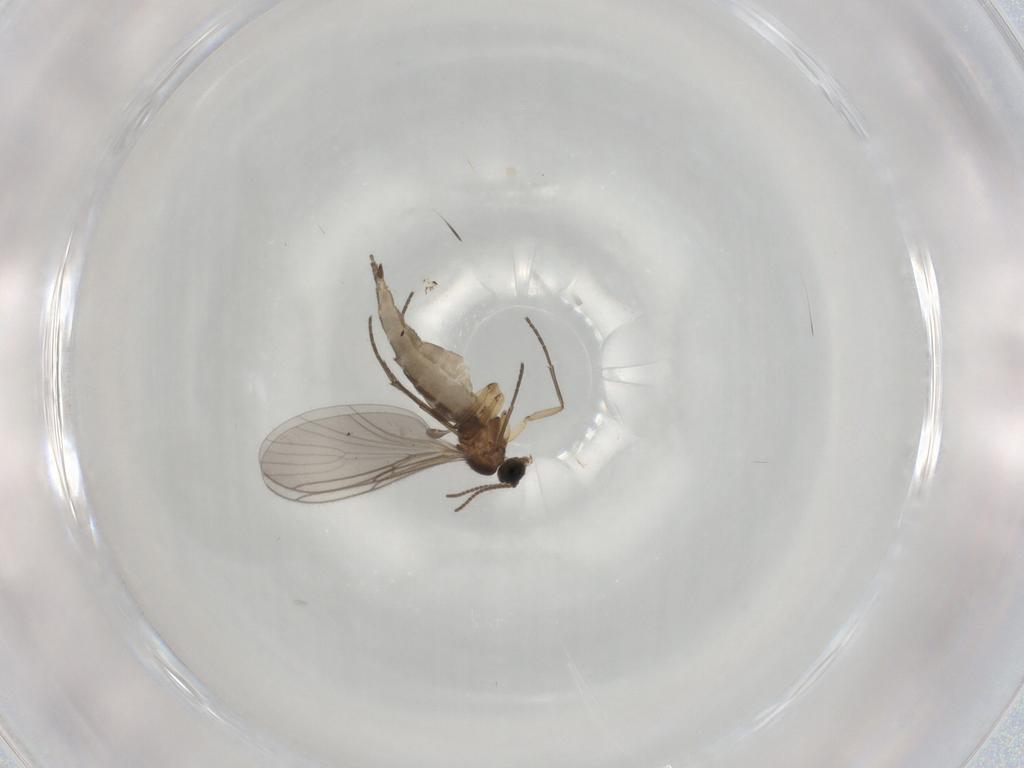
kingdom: Animalia
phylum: Arthropoda
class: Insecta
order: Diptera
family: Sciaridae
